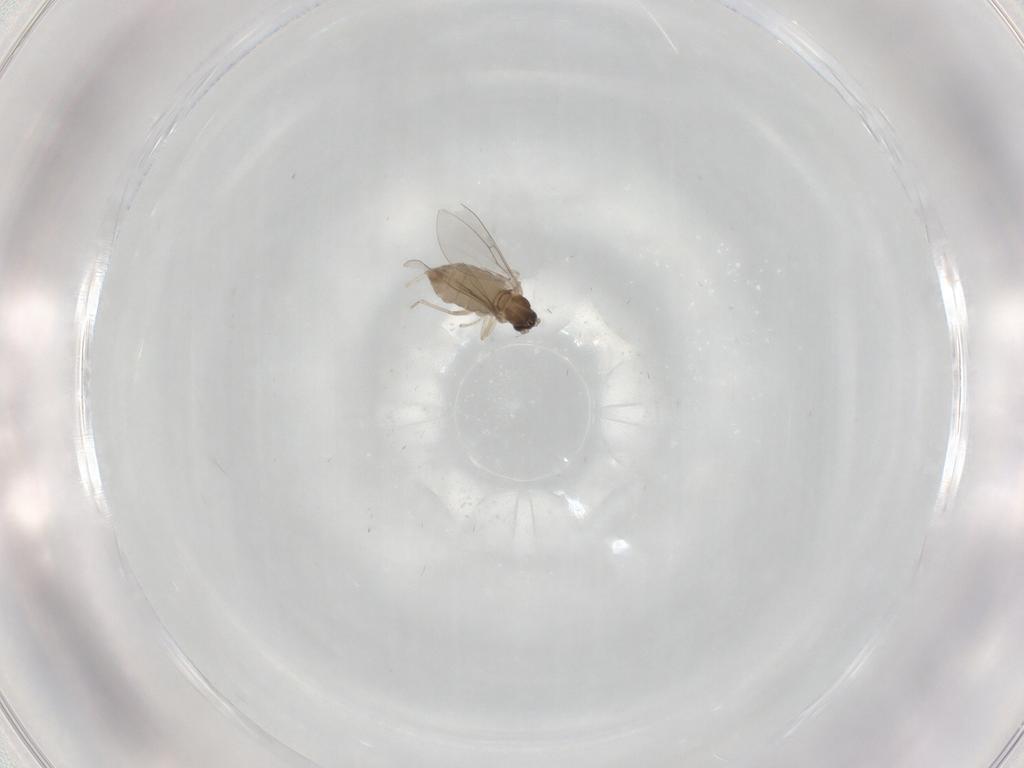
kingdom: Animalia
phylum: Arthropoda
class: Insecta
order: Diptera
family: Cecidomyiidae
